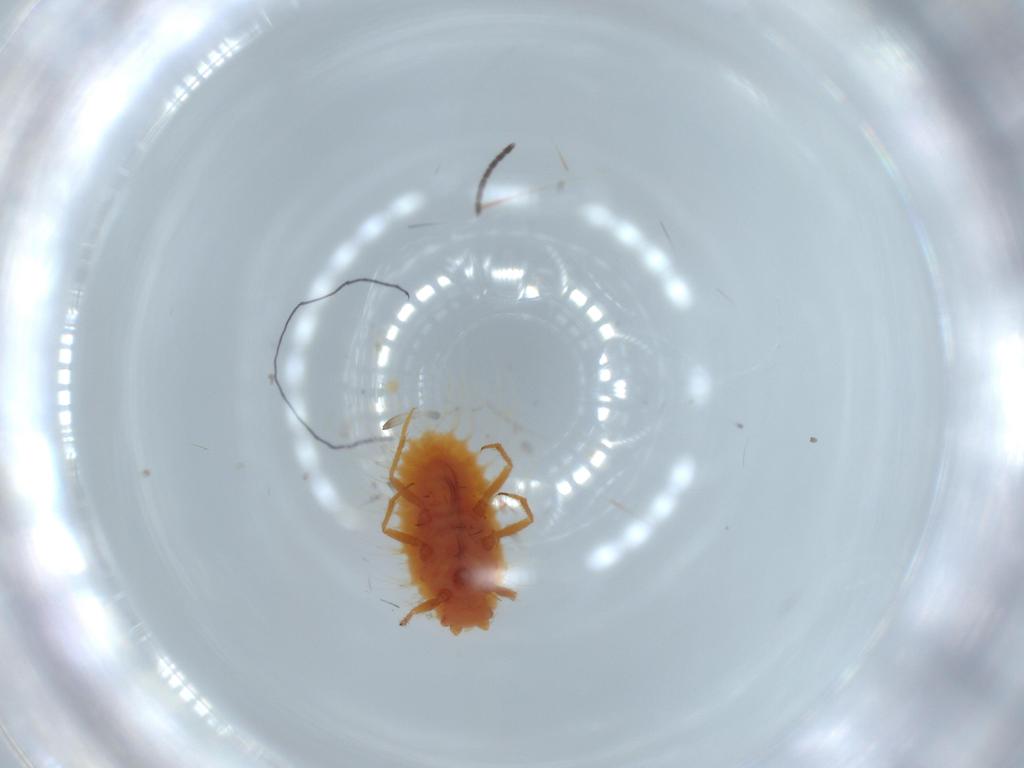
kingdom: Animalia
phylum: Arthropoda
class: Insecta
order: Hemiptera
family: Coccoidea_incertae_sedis
